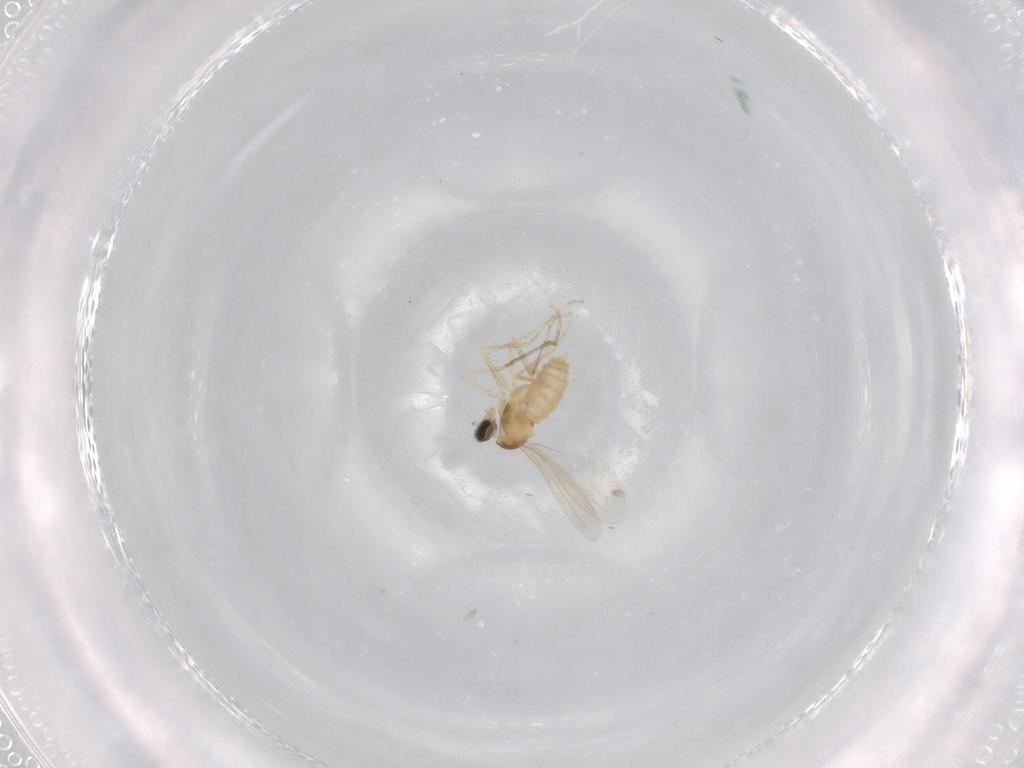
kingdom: Animalia
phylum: Arthropoda
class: Insecta
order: Diptera
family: Cecidomyiidae
